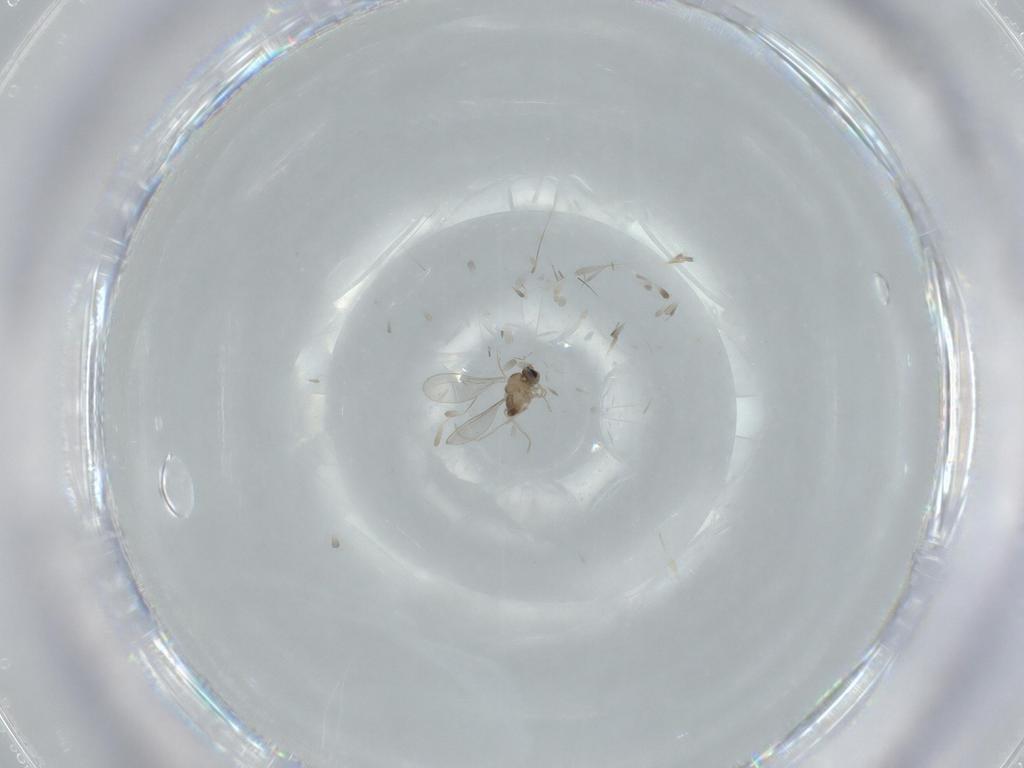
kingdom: Animalia
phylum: Arthropoda
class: Insecta
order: Diptera
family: Cecidomyiidae
